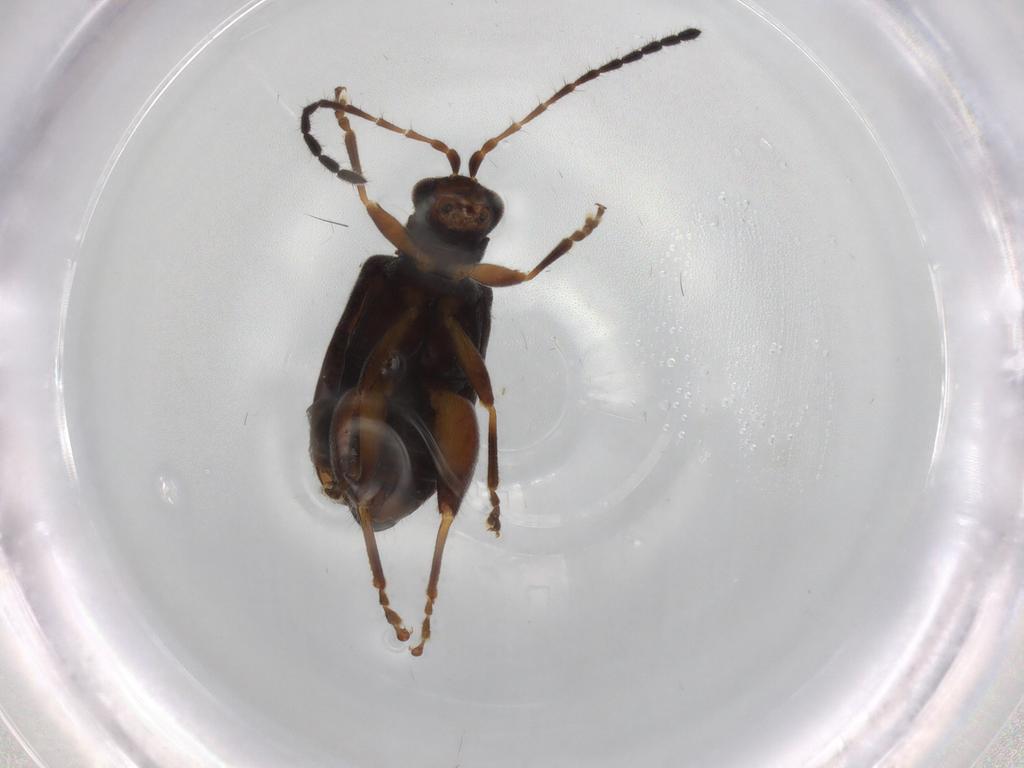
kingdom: Animalia
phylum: Arthropoda
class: Insecta
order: Coleoptera
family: Chrysomelidae
